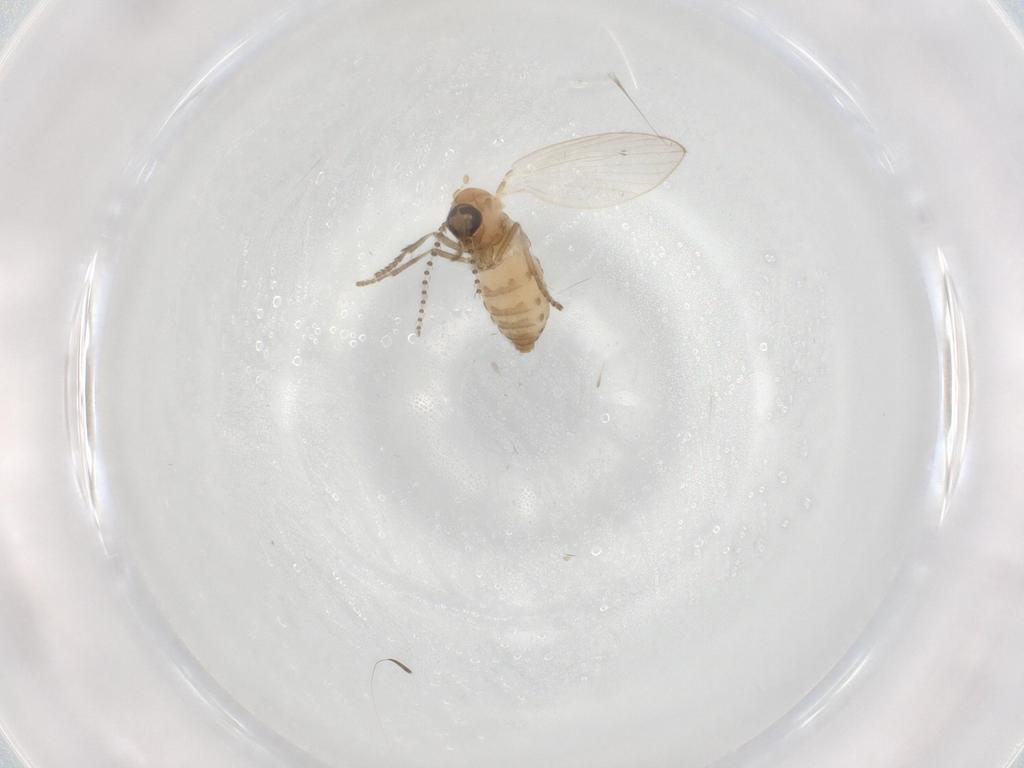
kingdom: Animalia
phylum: Arthropoda
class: Insecta
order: Diptera
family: Psychodidae
